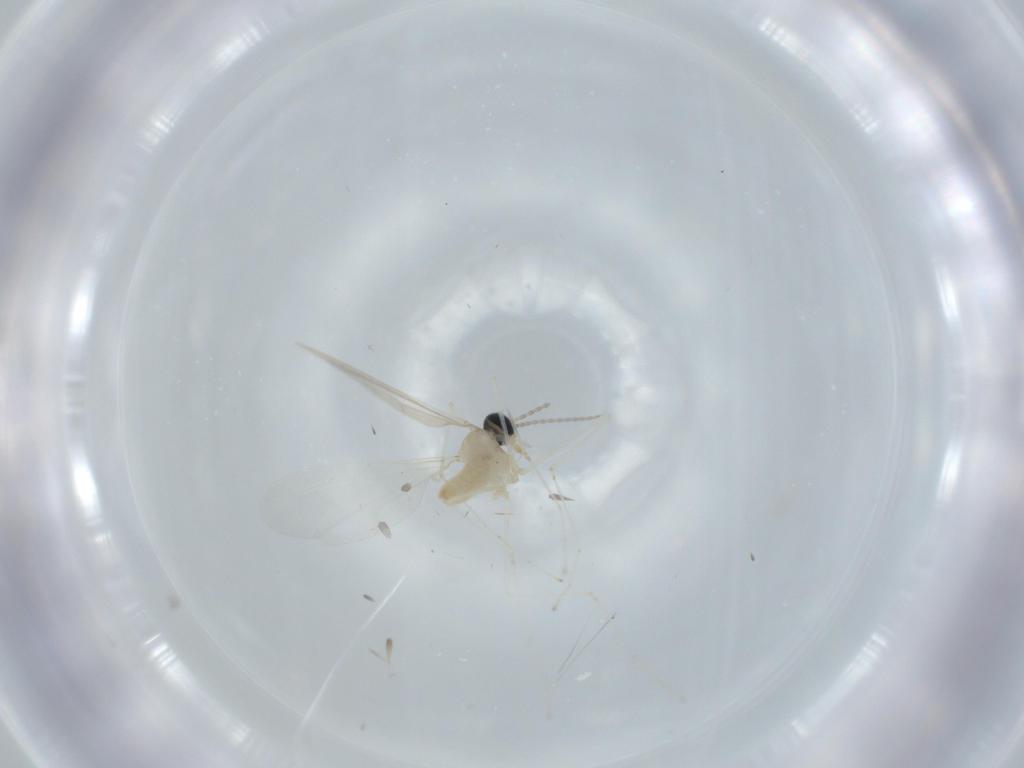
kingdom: Animalia
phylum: Arthropoda
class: Insecta
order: Diptera
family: Cecidomyiidae
